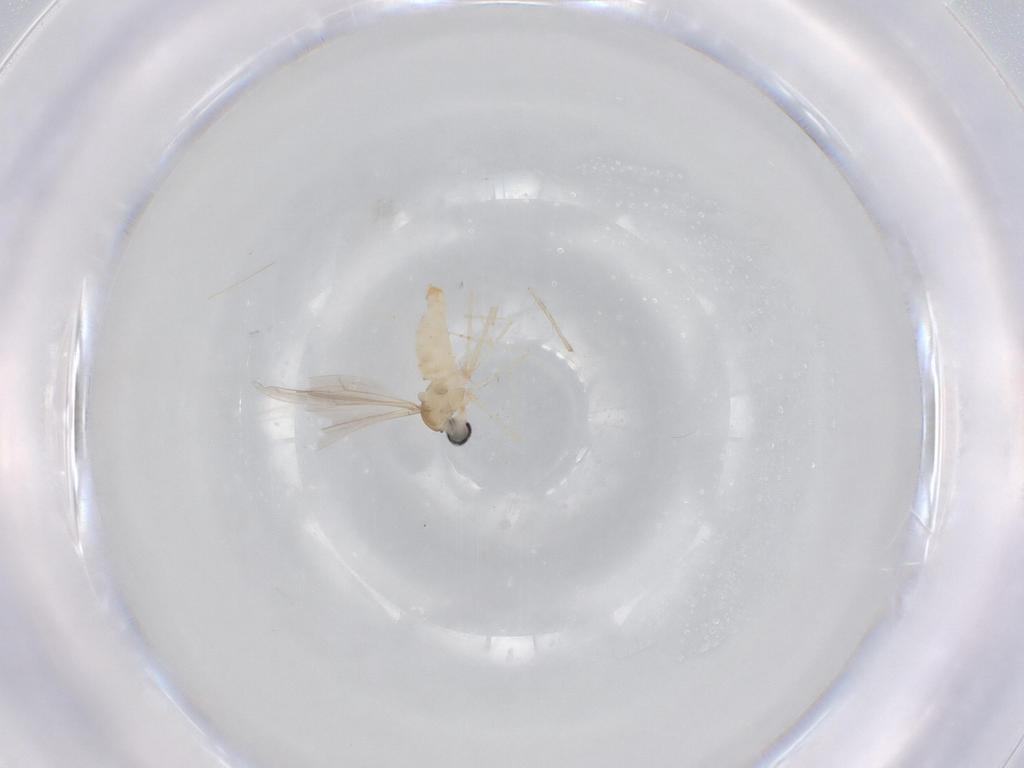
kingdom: Animalia
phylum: Arthropoda
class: Insecta
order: Diptera
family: Cecidomyiidae
